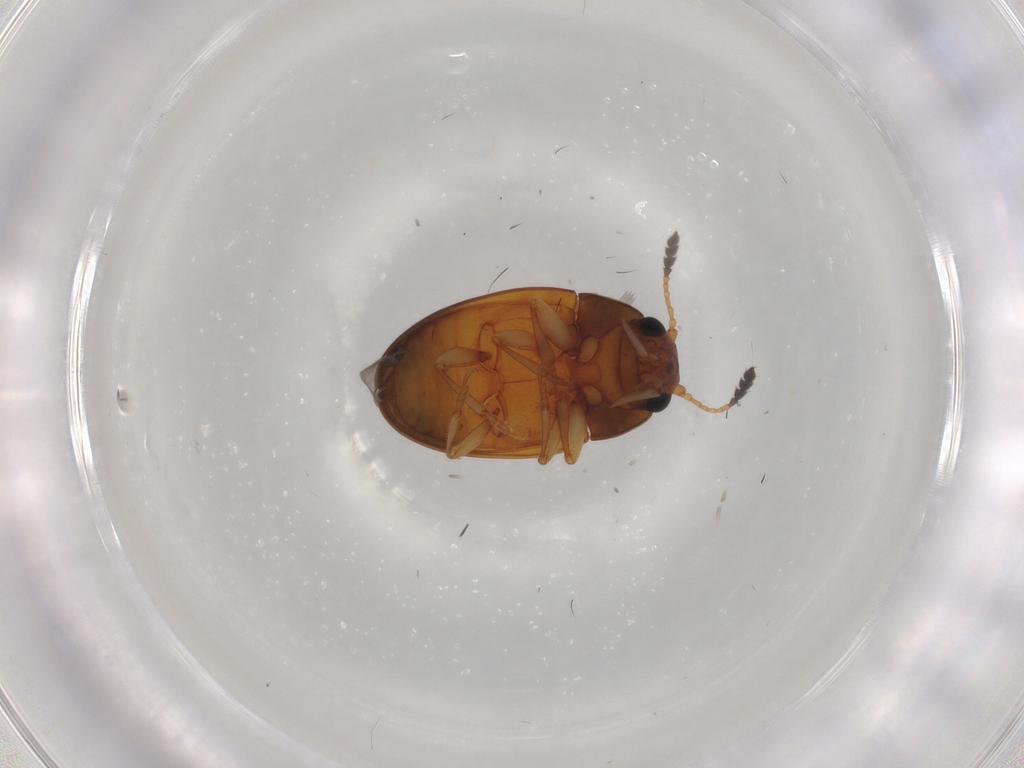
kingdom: Animalia
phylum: Arthropoda
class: Insecta
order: Coleoptera
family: Erotylidae
